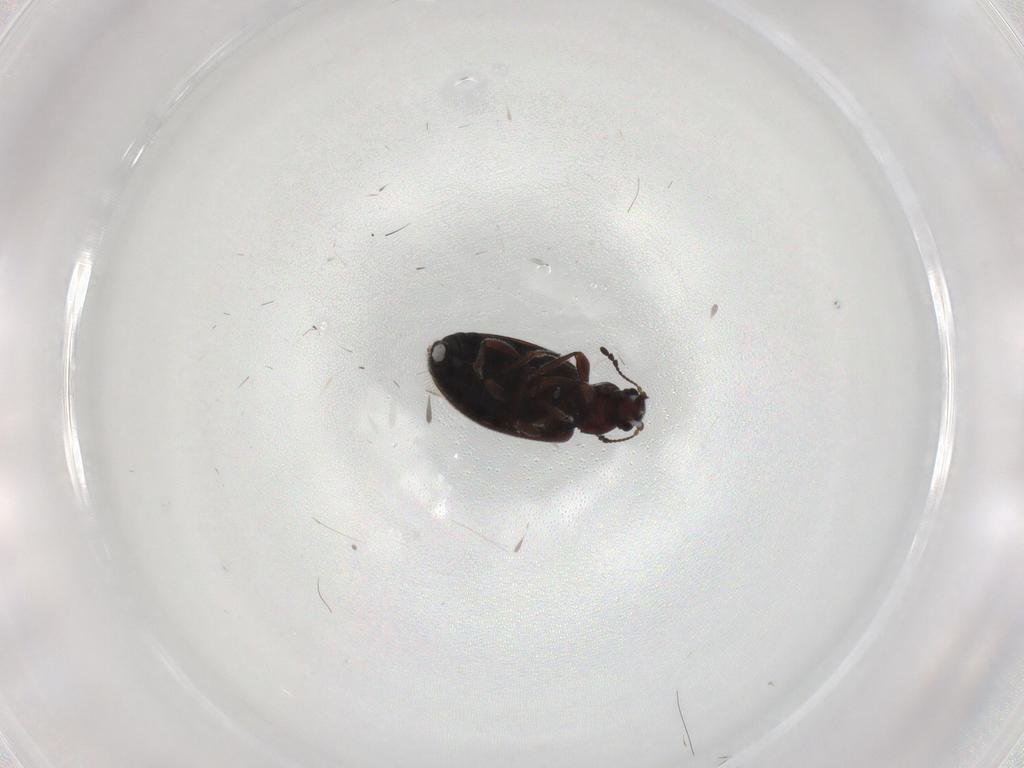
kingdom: Animalia
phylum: Arthropoda
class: Insecta
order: Coleoptera
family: Latridiidae
